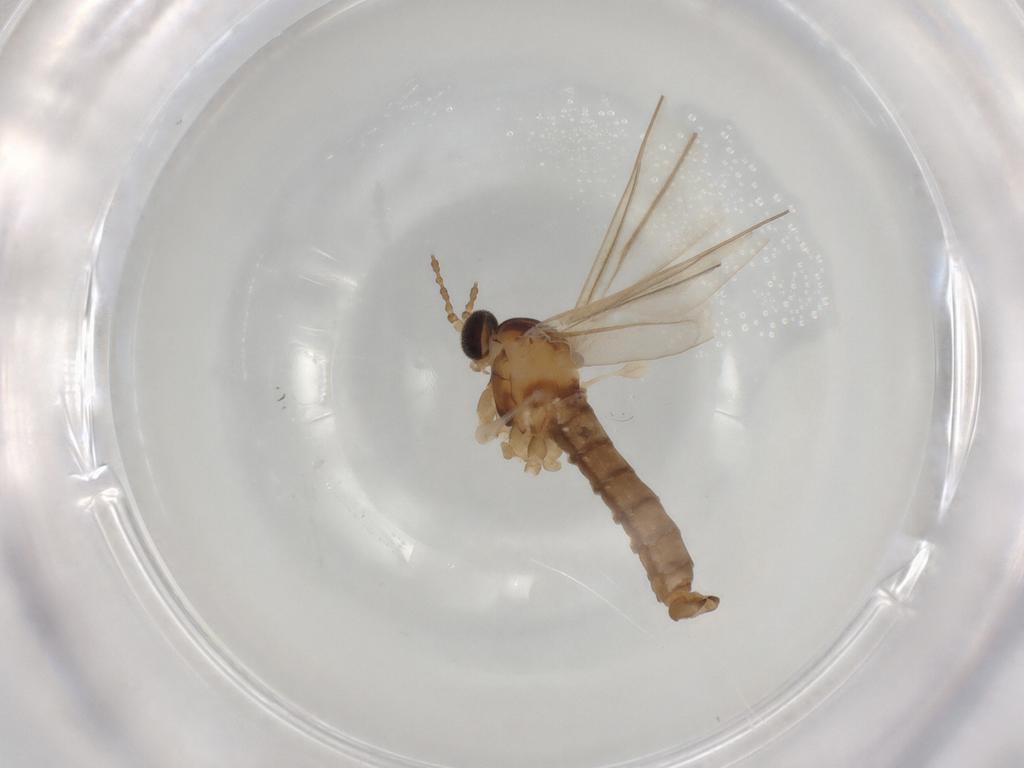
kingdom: Animalia
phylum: Arthropoda
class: Insecta
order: Diptera
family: Cecidomyiidae
